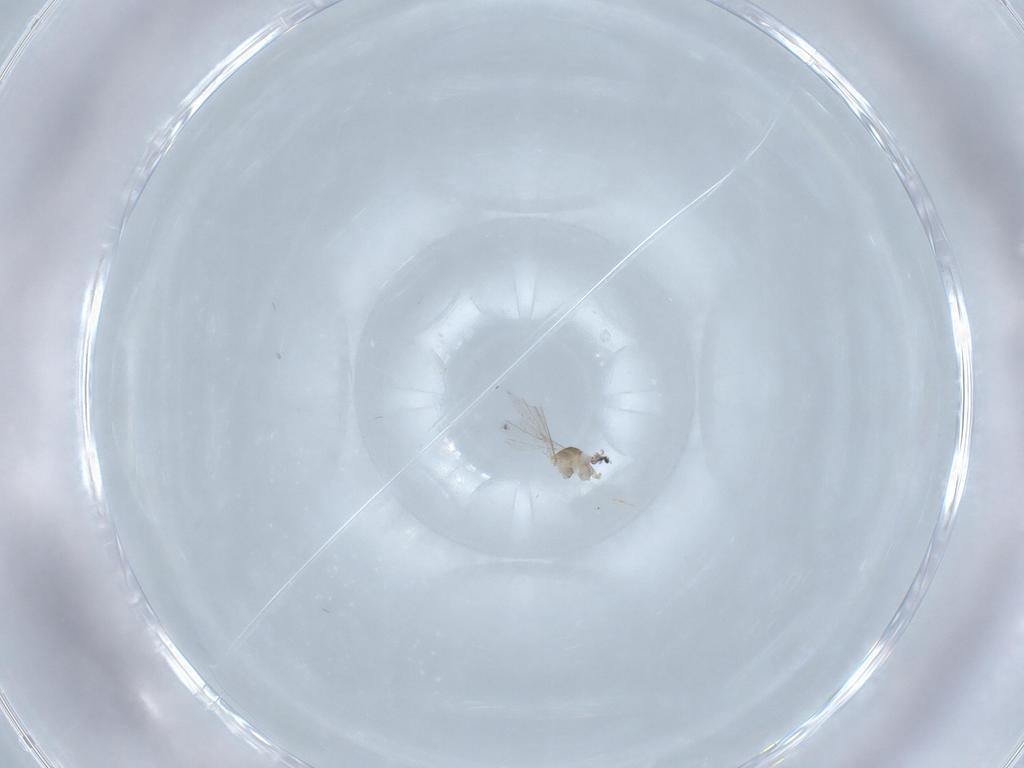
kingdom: Animalia
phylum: Arthropoda
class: Insecta
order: Diptera
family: Cecidomyiidae
